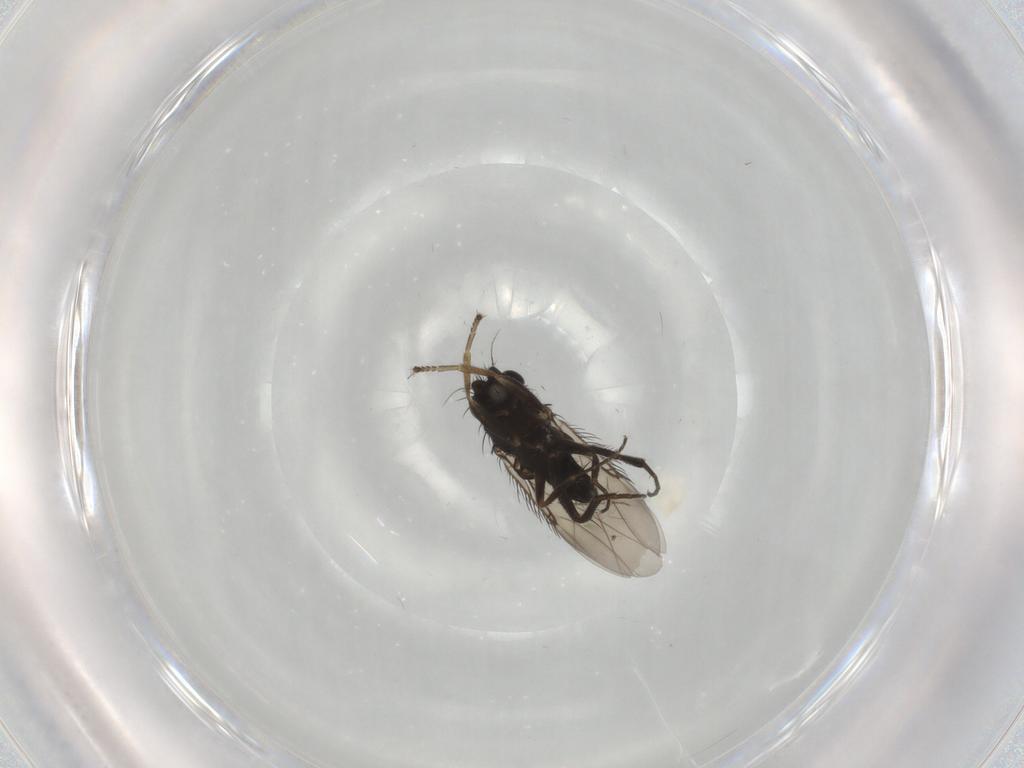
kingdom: Animalia
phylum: Arthropoda
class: Insecta
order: Diptera
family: Phoridae
